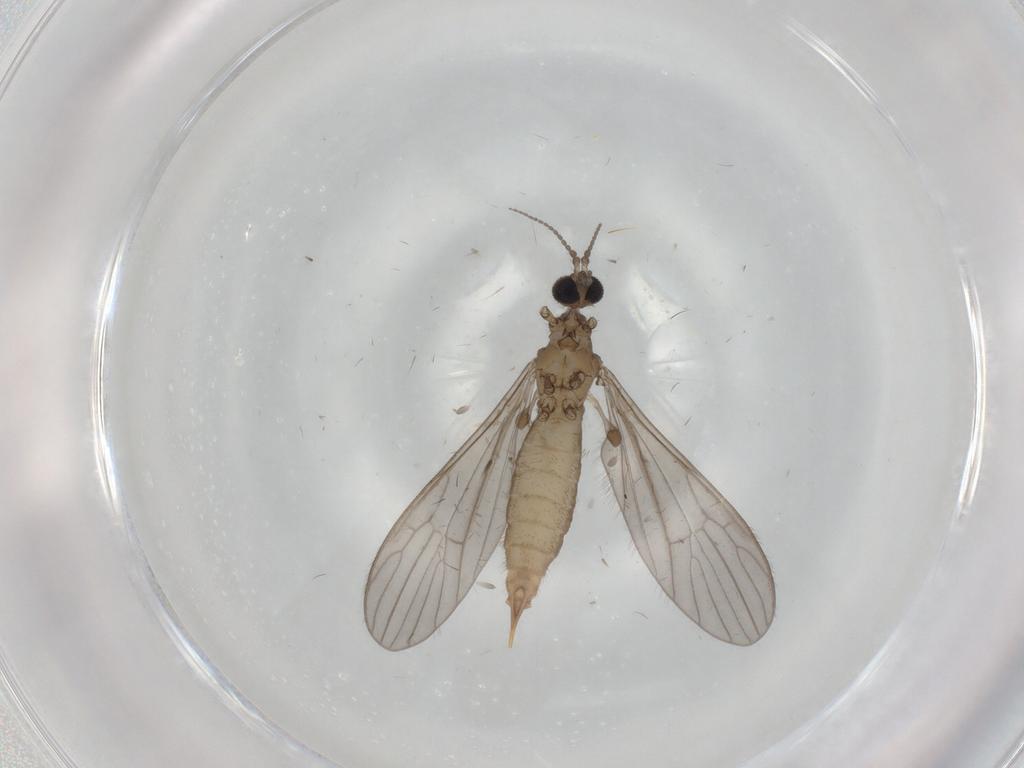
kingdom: Animalia
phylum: Arthropoda
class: Insecta
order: Diptera
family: Limoniidae
